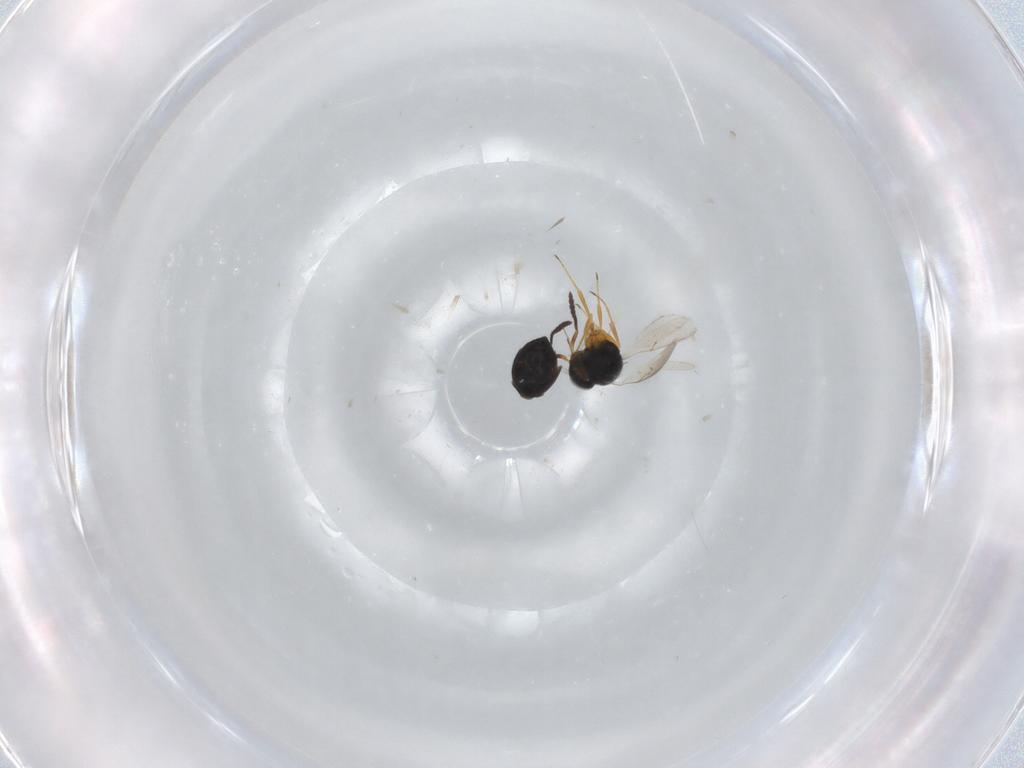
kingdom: Animalia
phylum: Arthropoda
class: Insecta
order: Hymenoptera
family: Scelionidae
